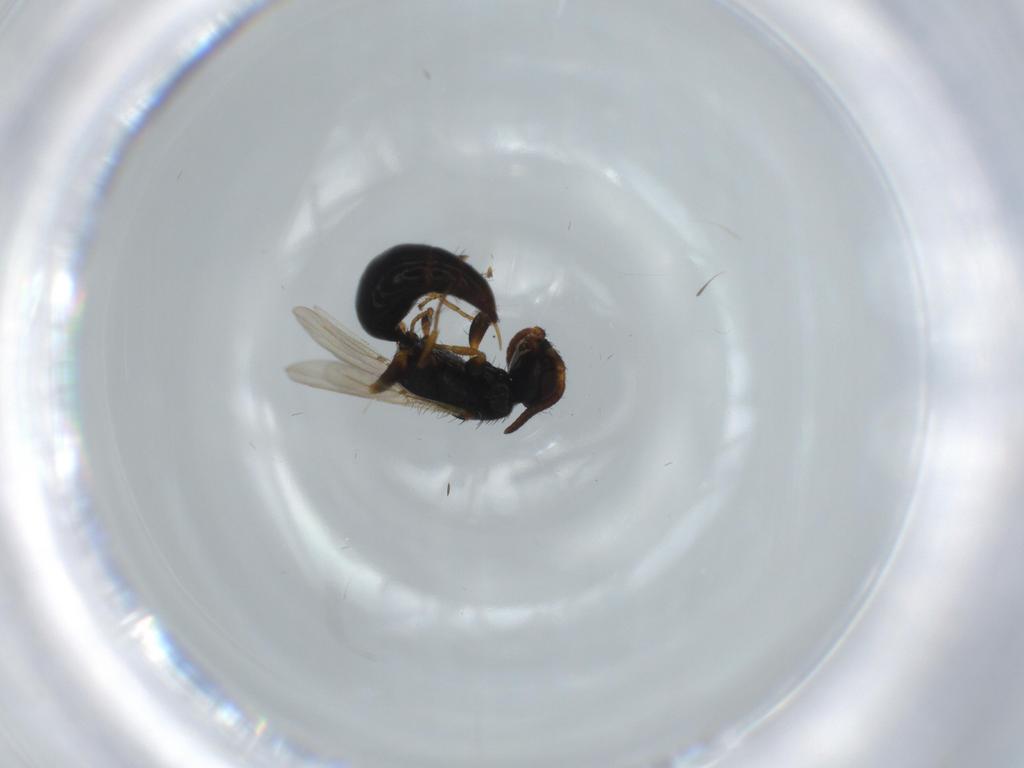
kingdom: Animalia
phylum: Arthropoda
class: Insecta
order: Hymenoptera
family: Bethylidae
